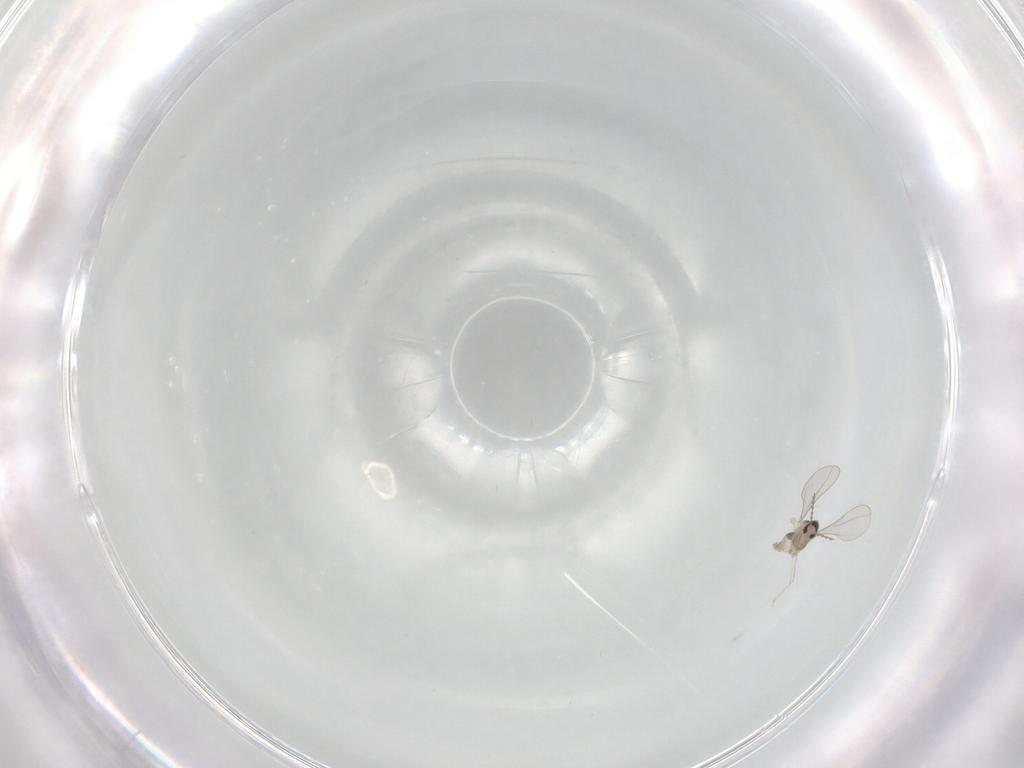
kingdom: Animalia
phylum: Arthropoda
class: Insecta
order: Diptera
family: Cecidomyiidae
